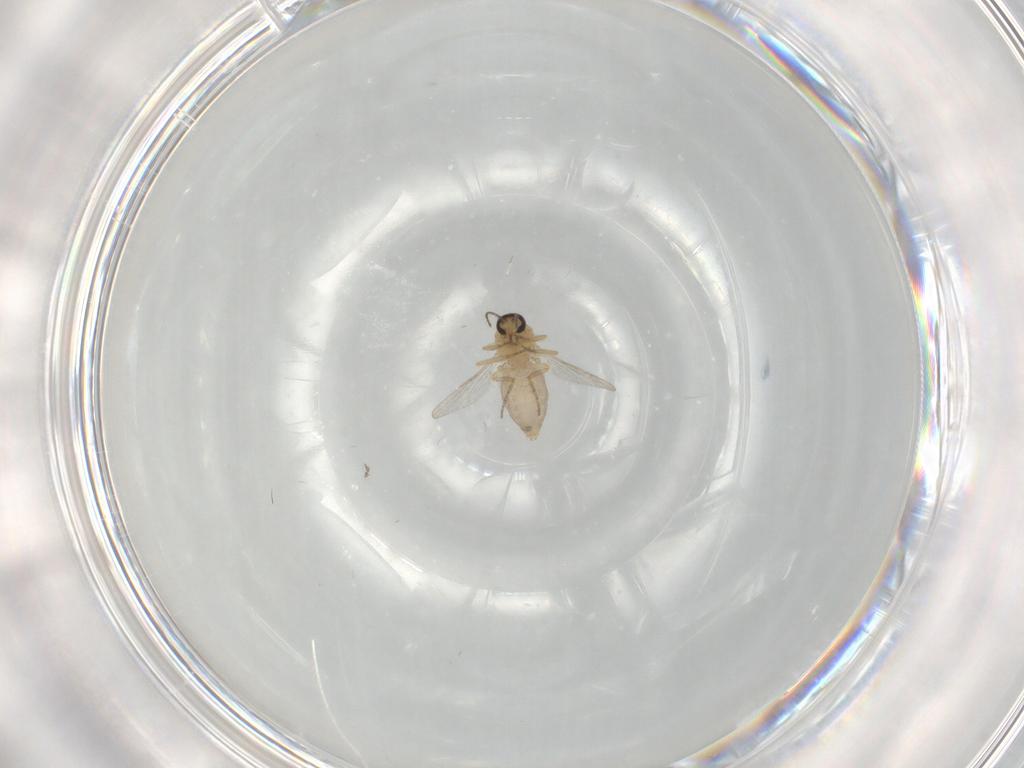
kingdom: Animalia
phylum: Arthropoda
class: Insecta
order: Diptera
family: Ceratopogonidae
